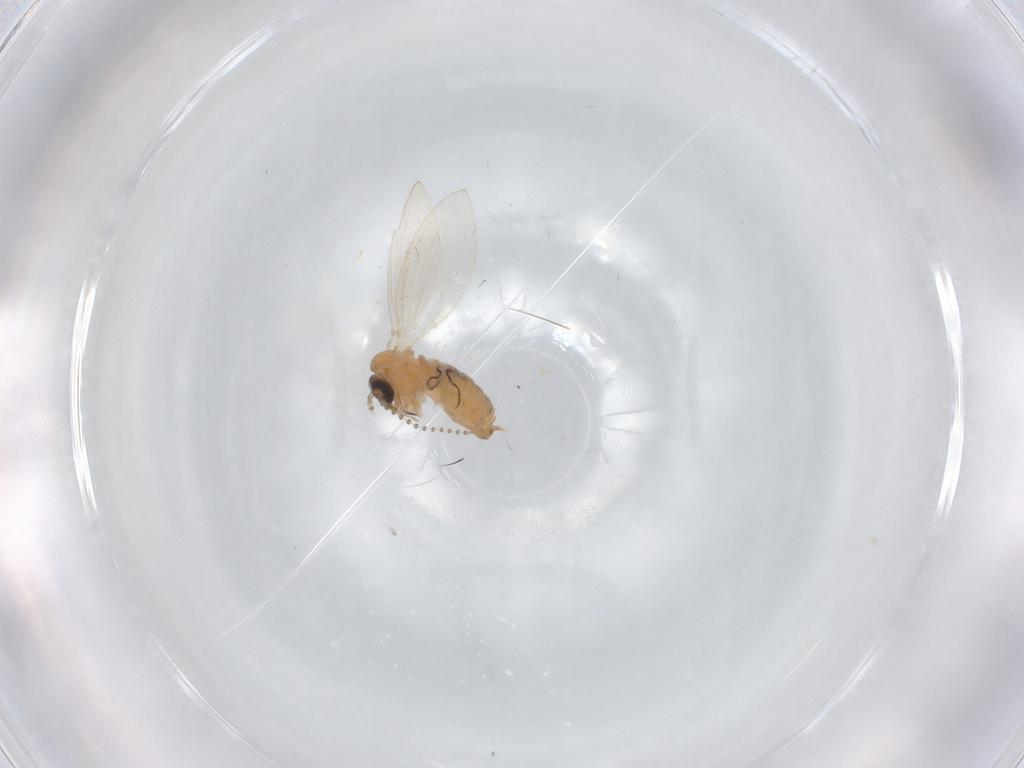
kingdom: Animalia
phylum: Arthropoda
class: Insecta
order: Diptera
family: Psychodidae
